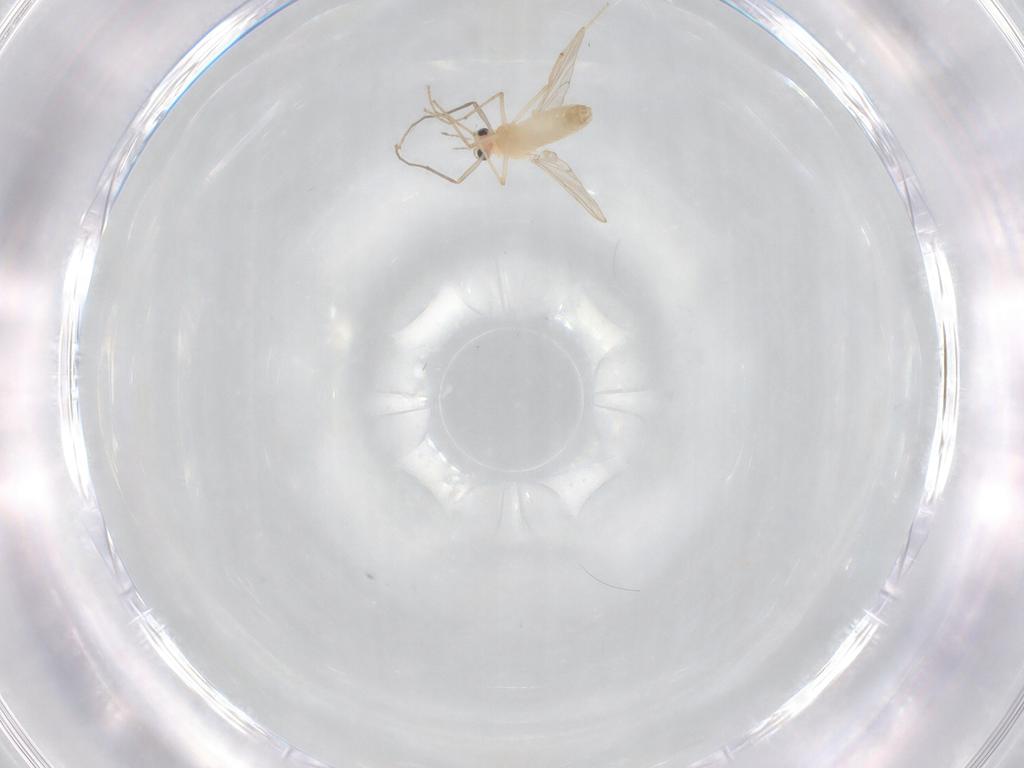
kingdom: Animalia
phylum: Arthropoda
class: Insecta
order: Diptera
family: Chironomidae
